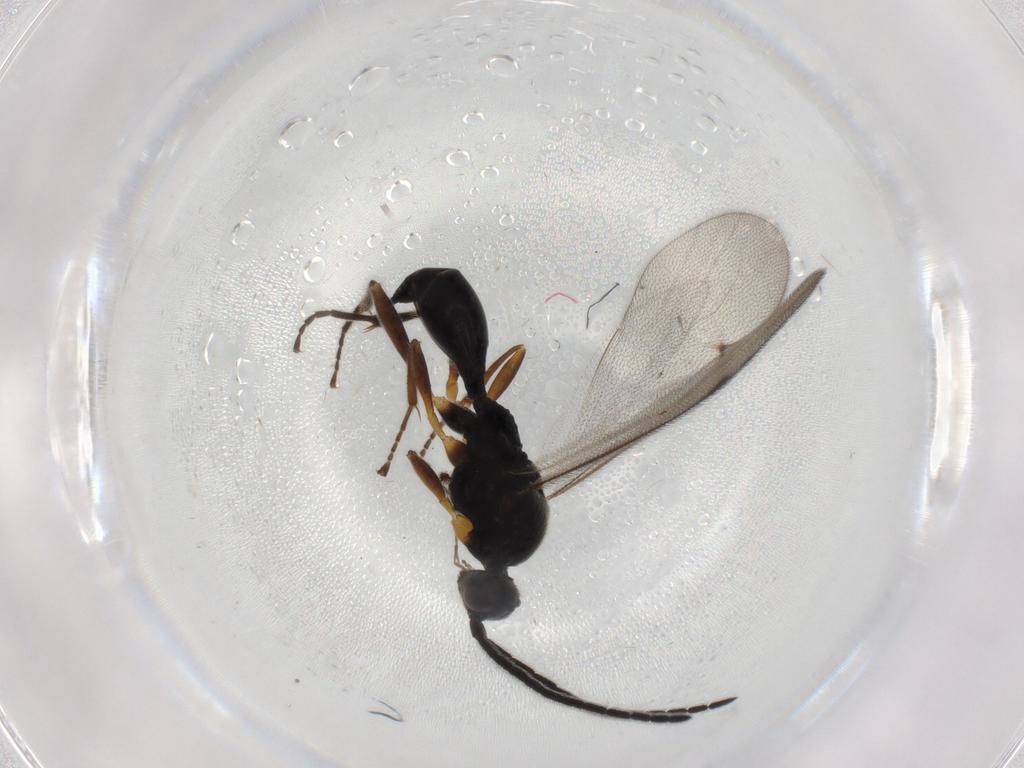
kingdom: Animalia
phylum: Arthropoda
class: Insecta
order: Hymenoptera
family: Proctotrupidae
